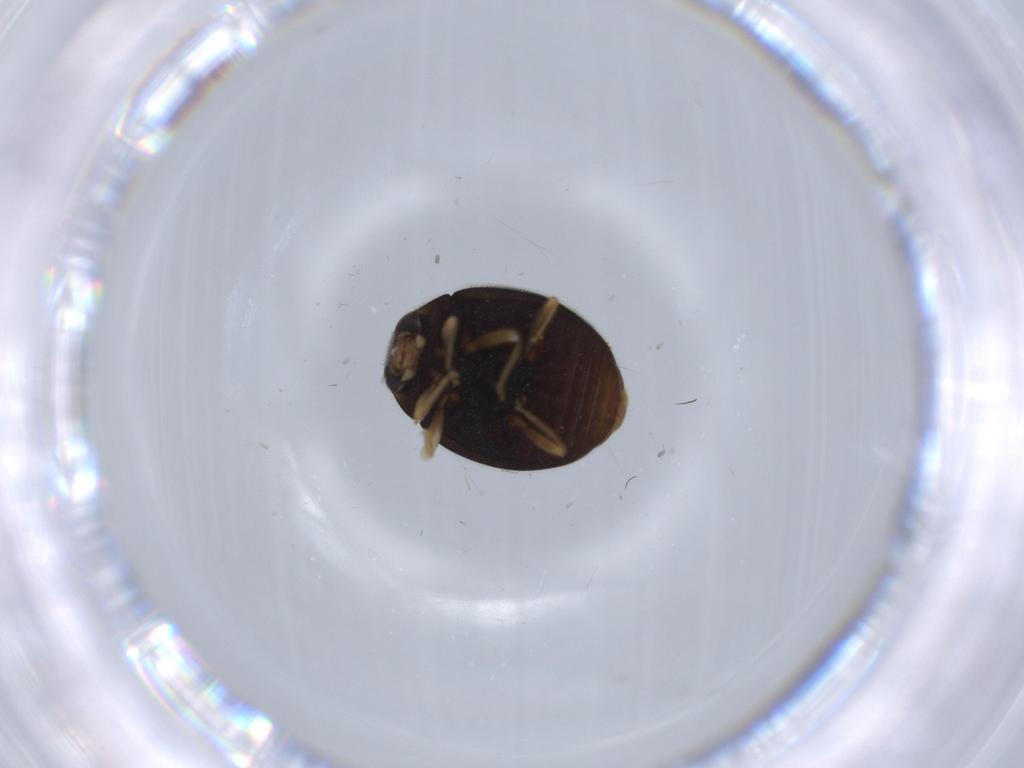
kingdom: Animalia
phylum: Arthropoda
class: Insecta
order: Coleoptera
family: Coccinellidae
